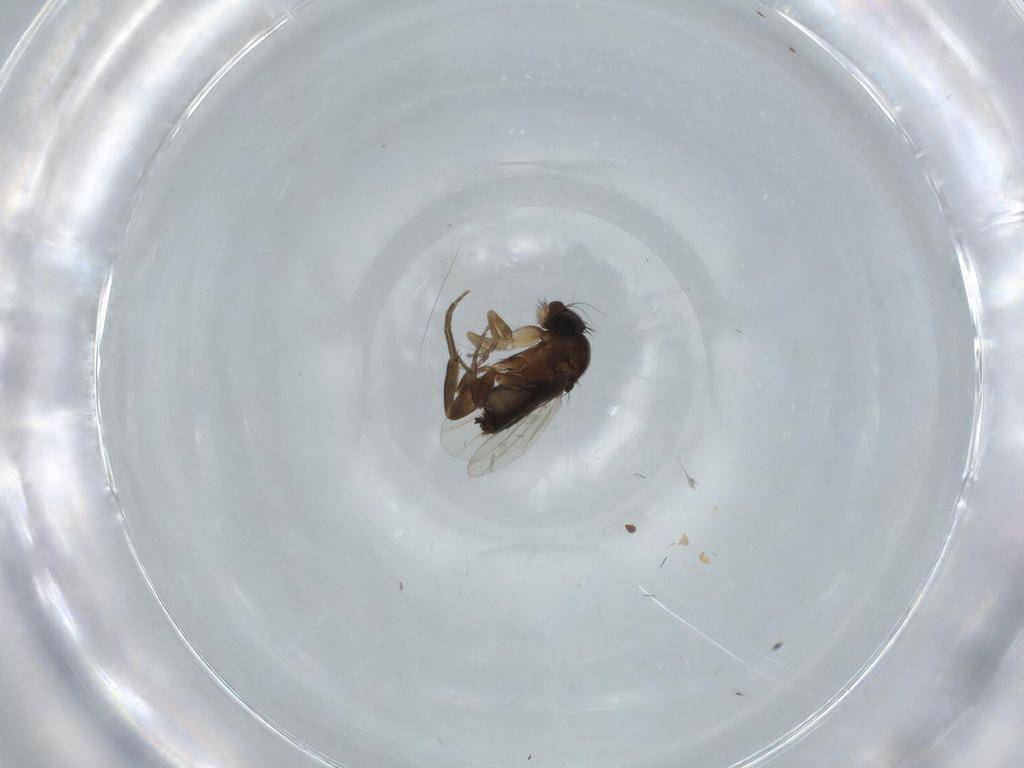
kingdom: Animalia
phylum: Arthropoda
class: Insecta
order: Diptera
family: Phoridae
